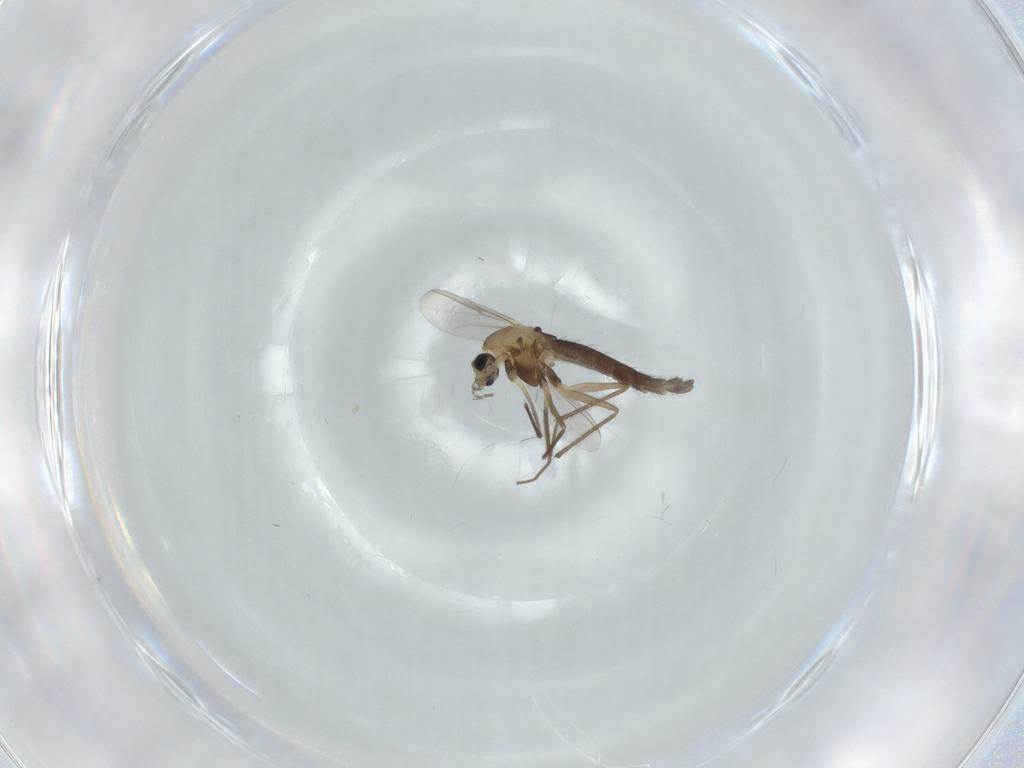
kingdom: Animalia
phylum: Arthropoda
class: Insecta
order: Diptera
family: Chironomidae
